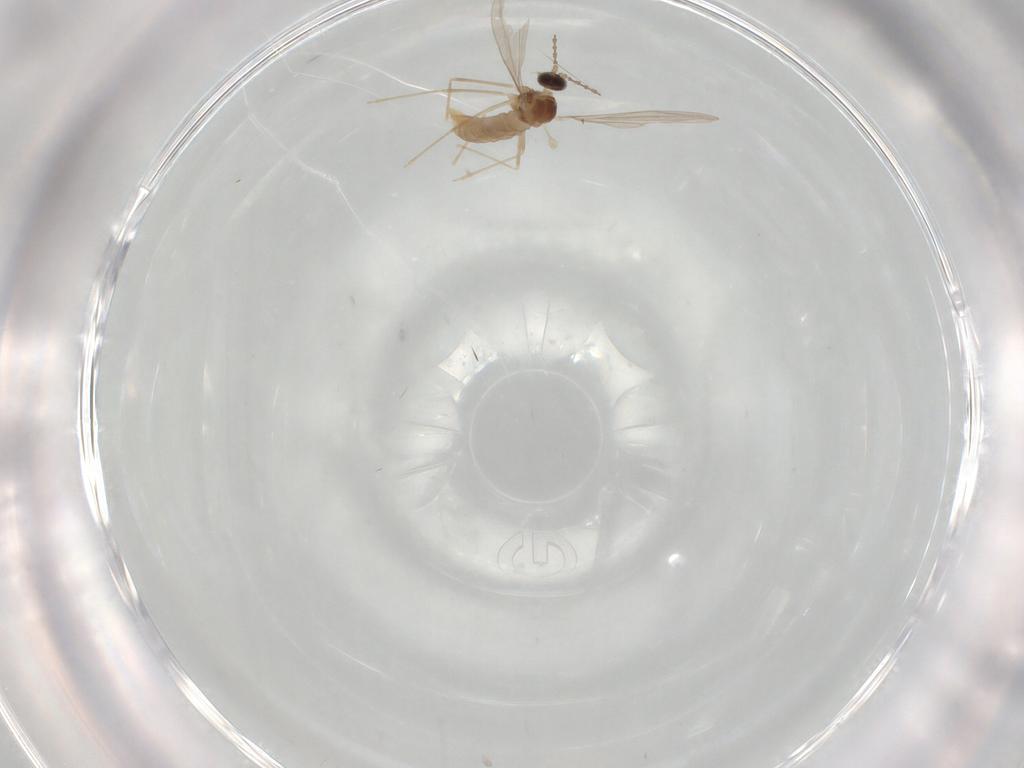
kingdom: Animalia
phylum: Arthropoda
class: Insecta
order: Diptera
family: Cecidomyiidae
